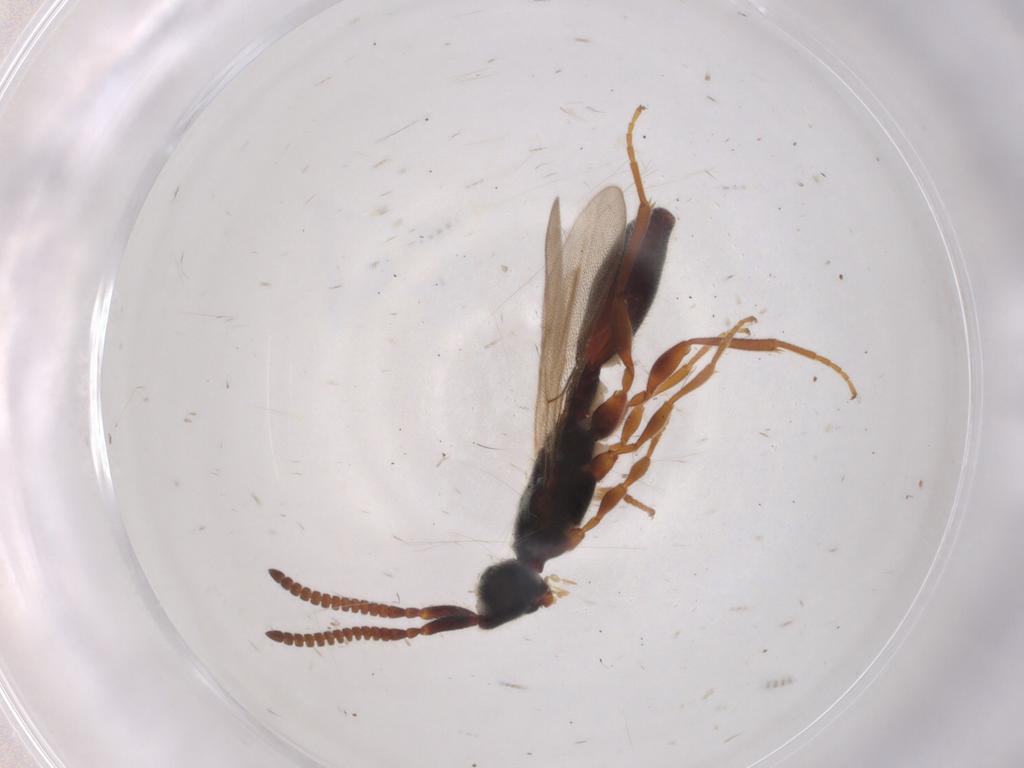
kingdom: Animalia
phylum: Arthropoda
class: Insecta
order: Hymenoptera
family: Diapriidae
